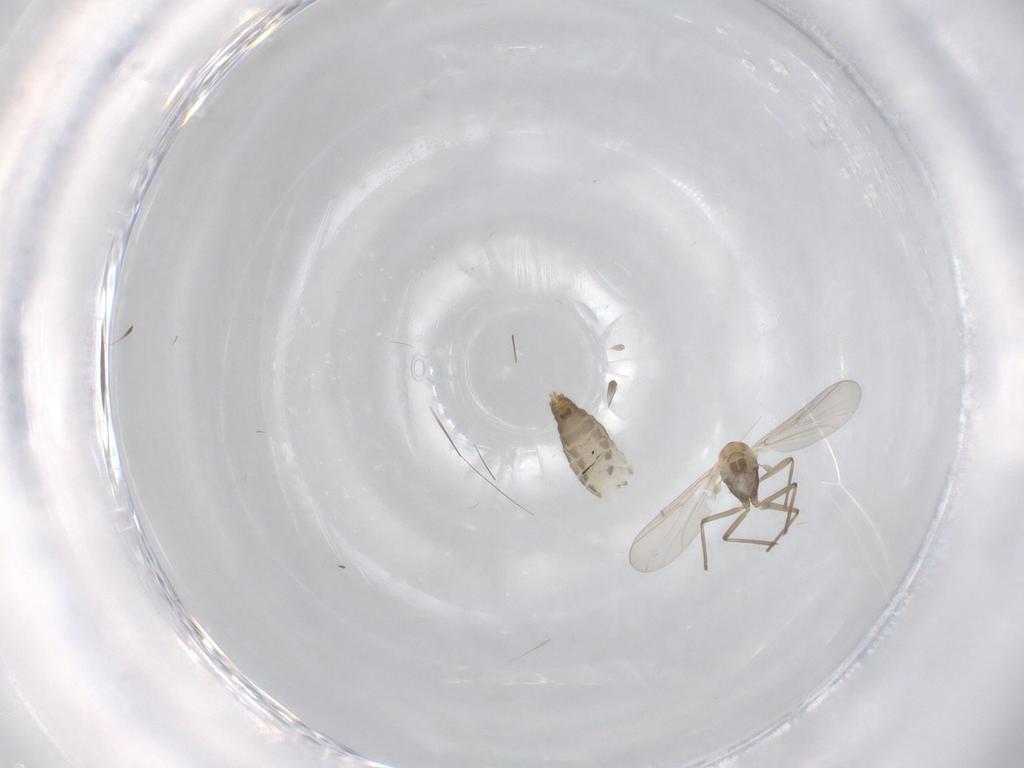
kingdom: Animalia
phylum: Arthropoda
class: Insecta
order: Diptera
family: Chironomidae
